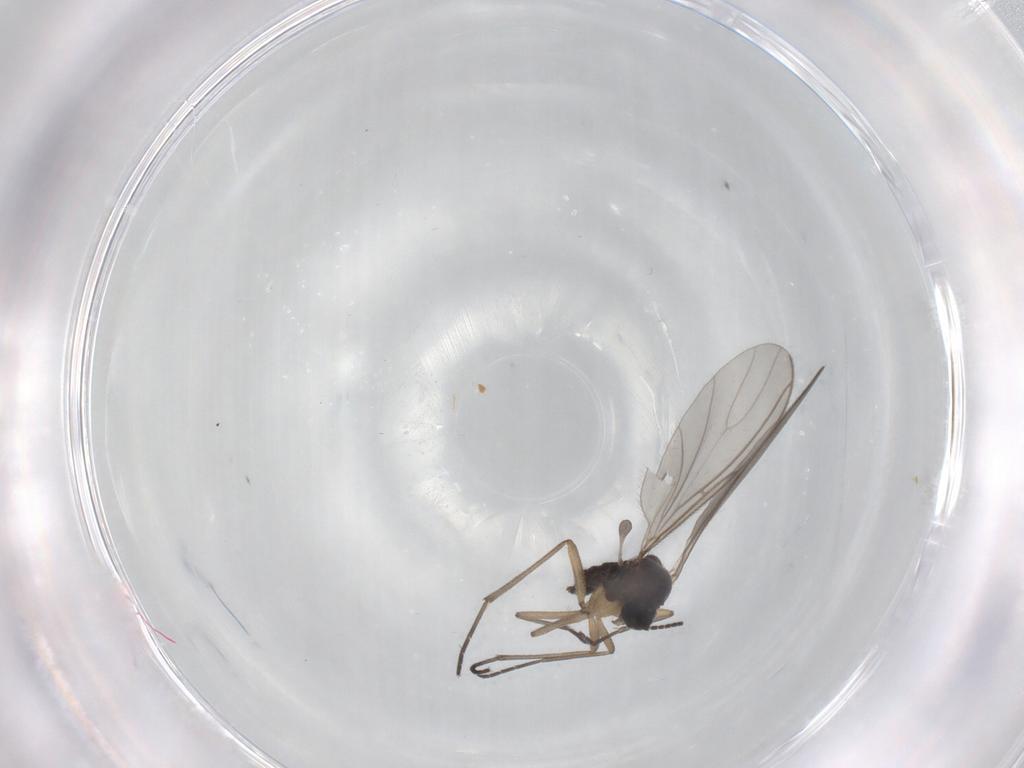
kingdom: Animalia
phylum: Arthropoda
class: Insecta
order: Diptera
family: Sciaridae
